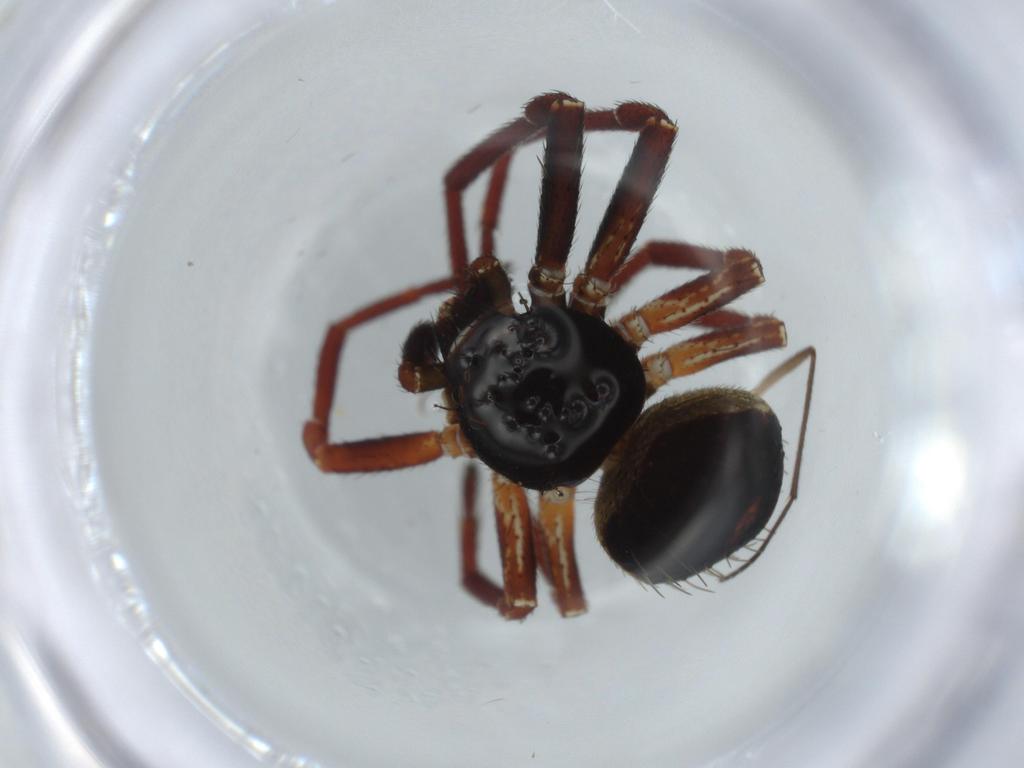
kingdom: Animalia
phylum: Arthropoda
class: Arachnida
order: Araneae
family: Thomisidae
